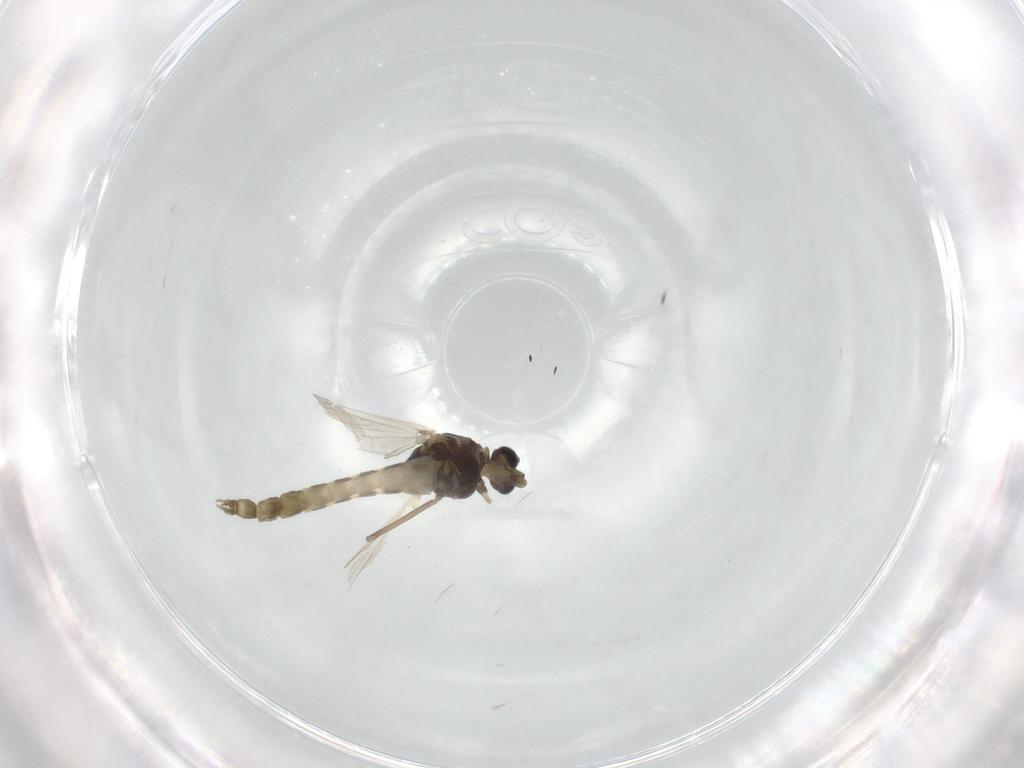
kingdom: Animalia
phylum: Arthropoda
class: Insecta
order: Diptera
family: Chironomidae
